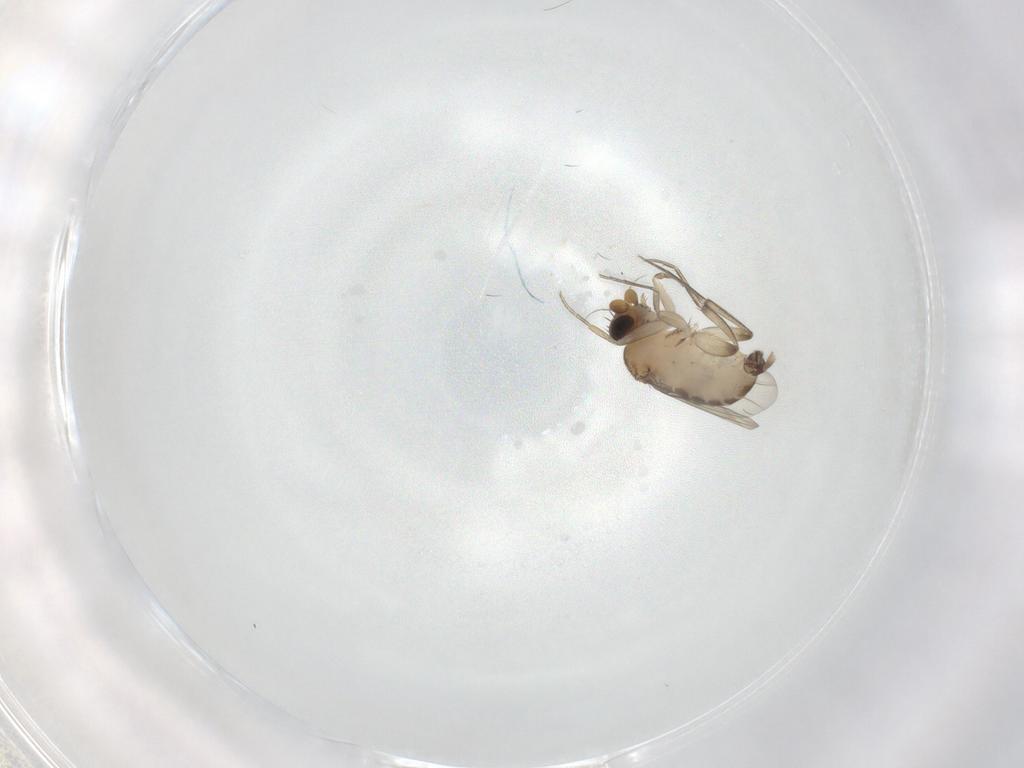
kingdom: Animalia
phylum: Arthropoda
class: Insecta
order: Diptera
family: Phoridae
